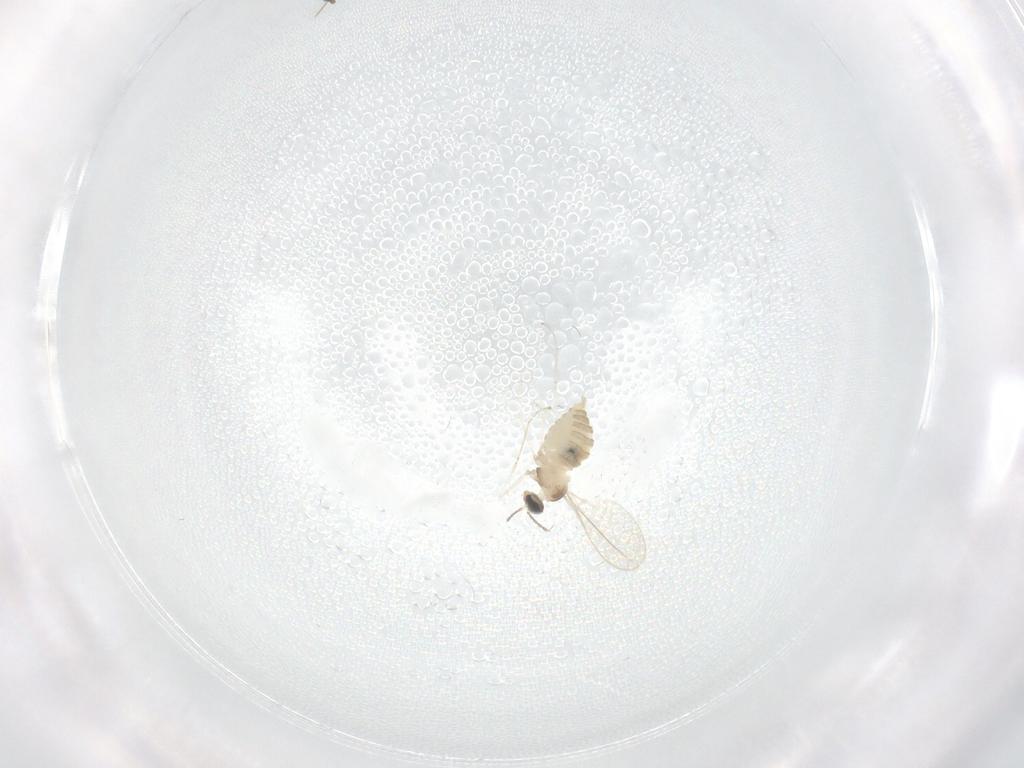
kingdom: Animalia
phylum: Arthropoda
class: Insecta
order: Diptera
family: Cecidomyiidae
